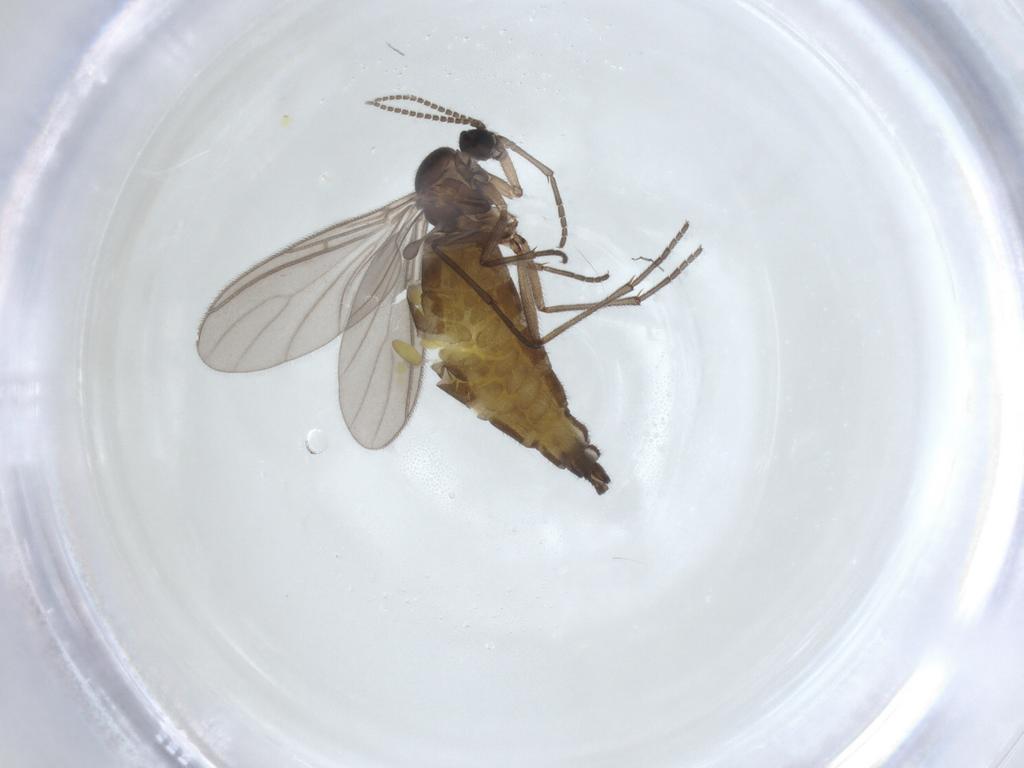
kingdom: Animalia
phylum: Arthropoda
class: Insecta
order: Diptera
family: Sciaridae
